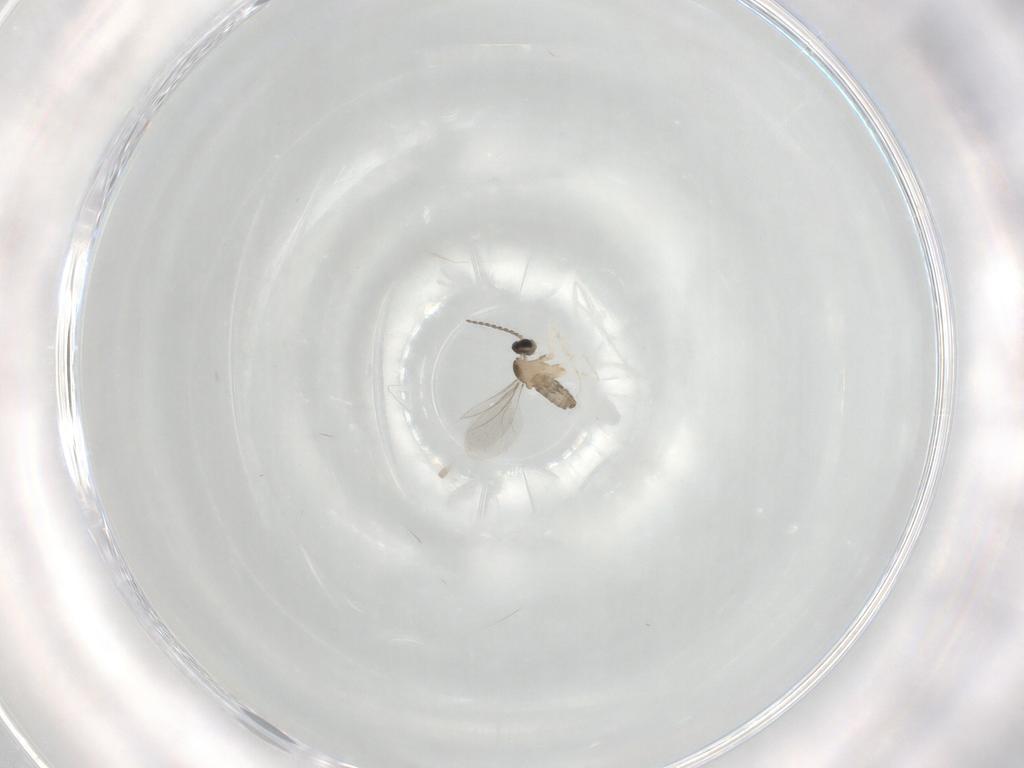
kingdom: Animalia
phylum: Arthropoda
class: Insecta
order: Diptera
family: Cecidomyiidae
